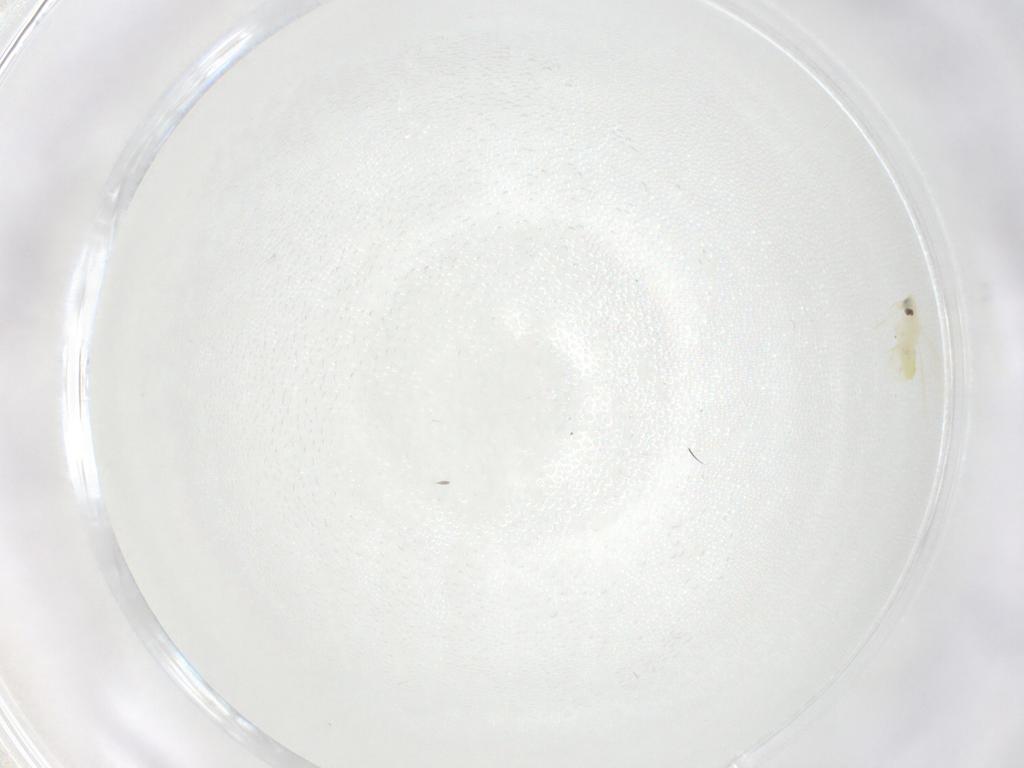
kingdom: Animalia
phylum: Arthropoda
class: Insecta
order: Hemiptera
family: Aleyrodidae
